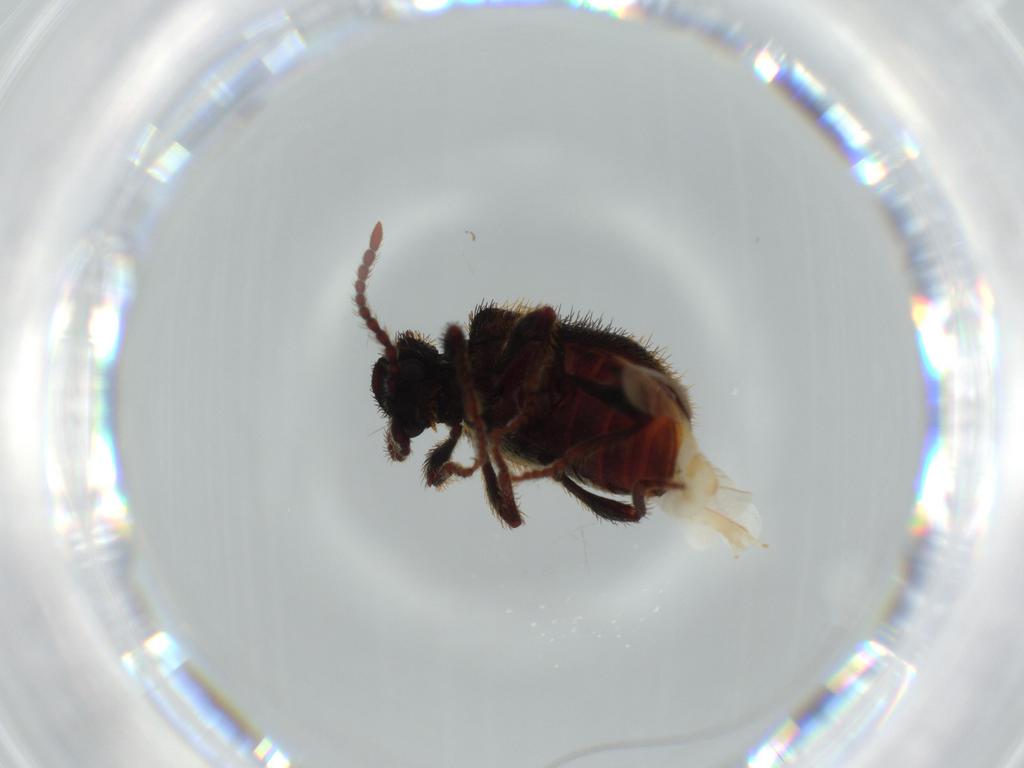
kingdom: Animalia
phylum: Arthropoda
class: Insecta
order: Coleoptera
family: Ptinidae
